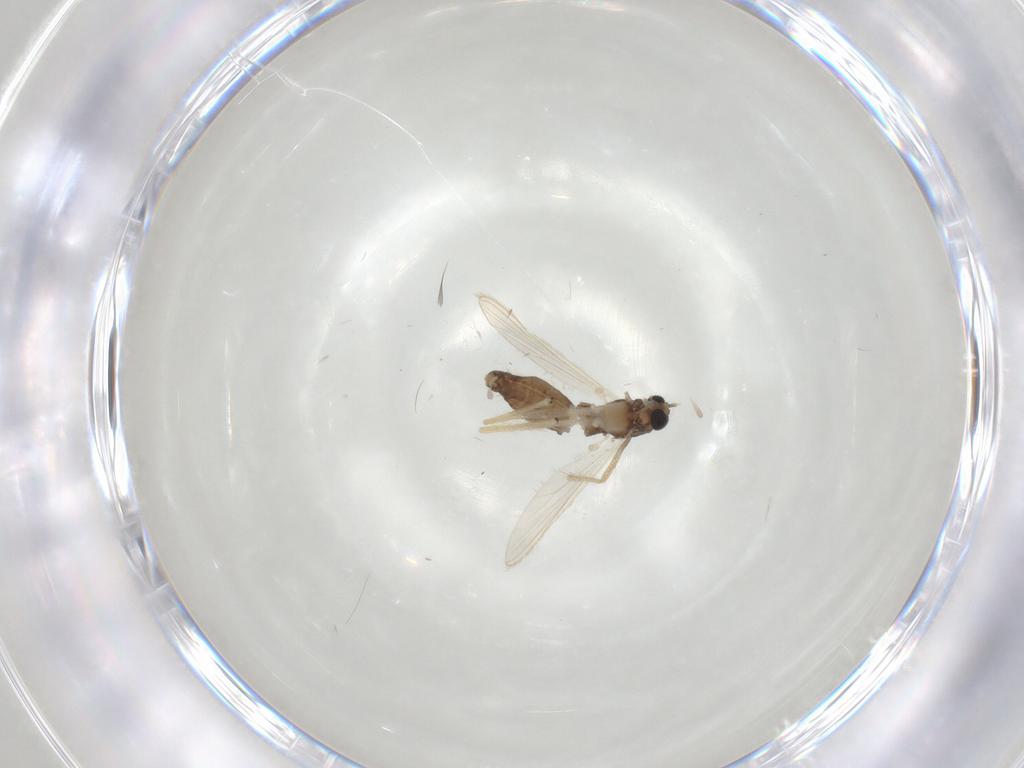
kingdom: Animalia
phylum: Arthropoda
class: Insecta
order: Diptera
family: Chironomidae
